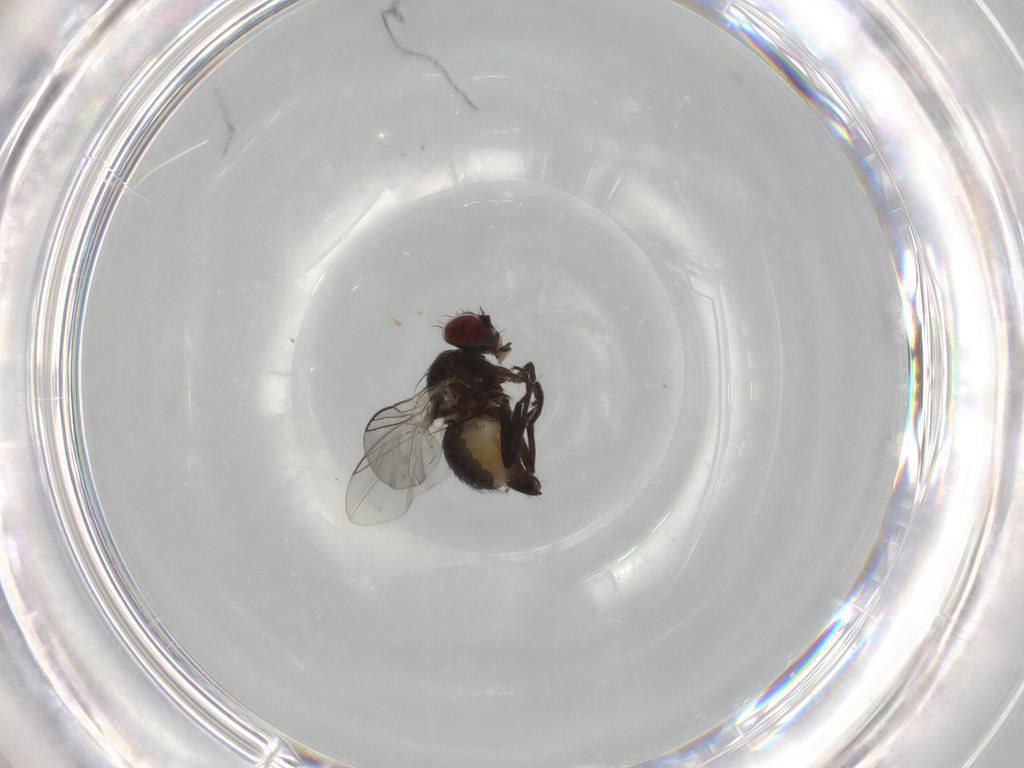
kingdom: Animalia
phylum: Arthropoda
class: Insecta
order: Diptera
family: Chironomidae
